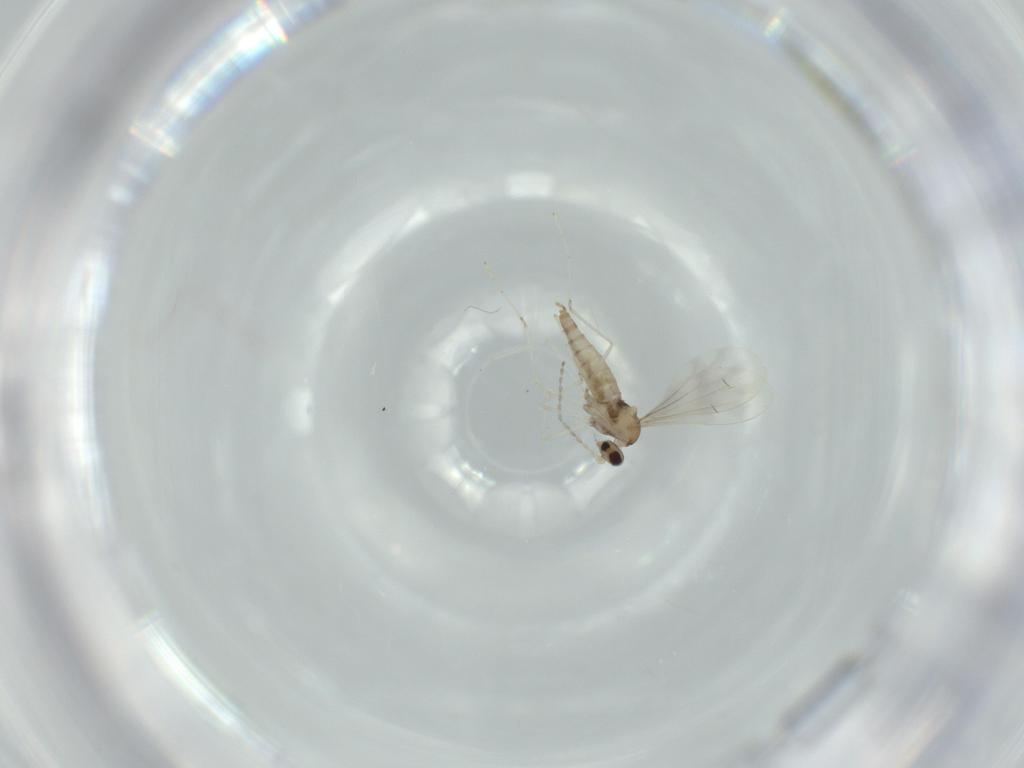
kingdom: Animalia
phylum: Arthropoda
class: Insecta
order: Diptera
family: Cecidomyiidae
